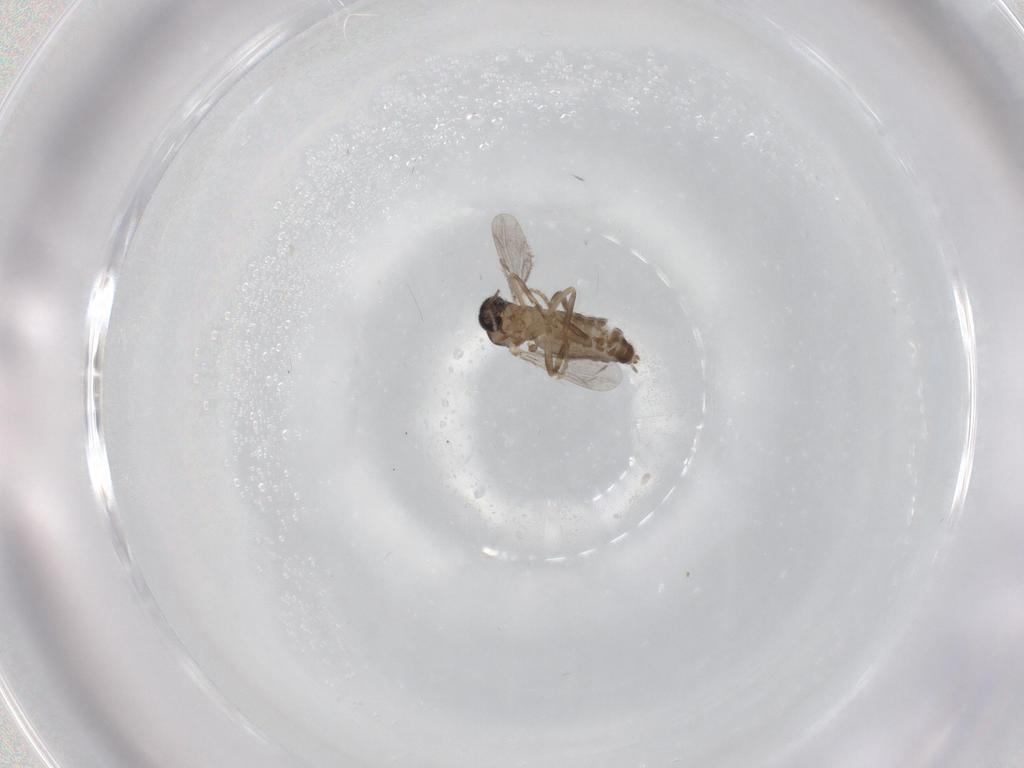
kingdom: Animalia
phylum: Arthropoda
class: Insecta
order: Diptera
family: Ceratopogonidae
